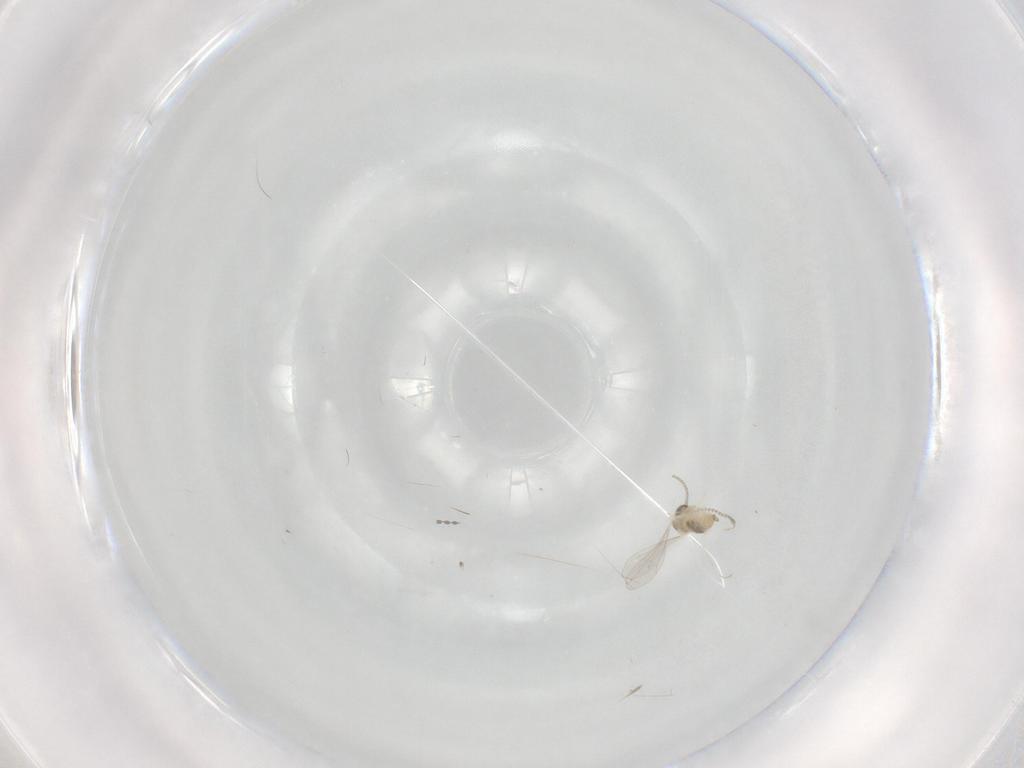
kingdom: Animalia
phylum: Arthropoda
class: Insecta
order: Diptera
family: Cecidomyiidae
